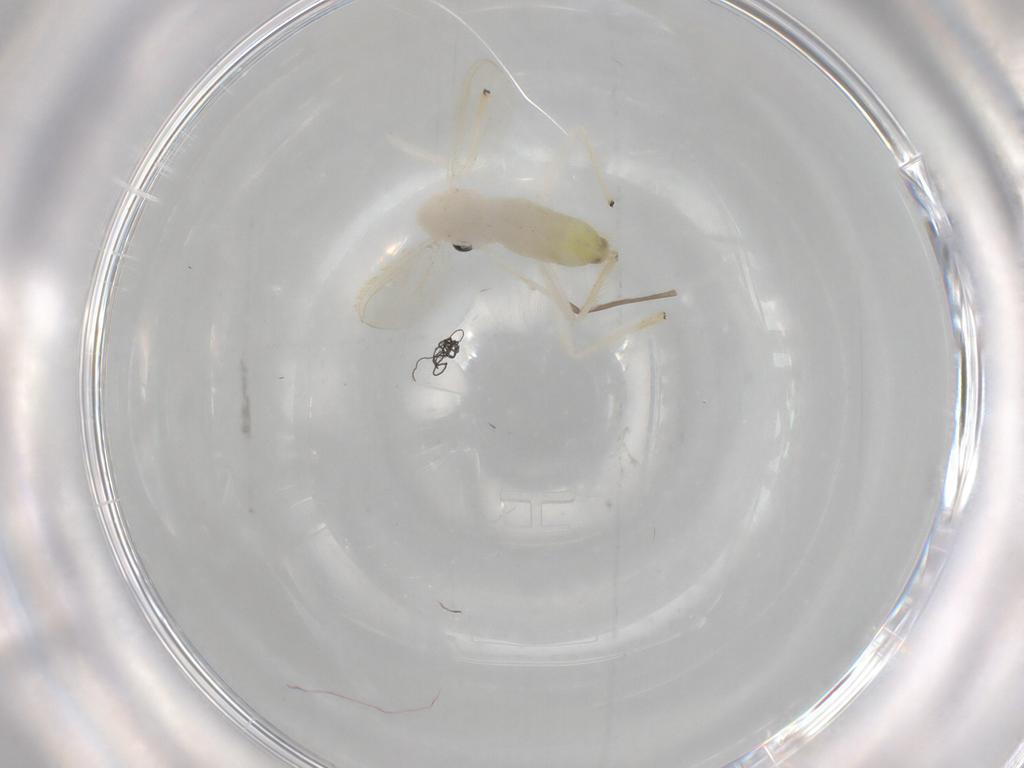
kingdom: Animalia
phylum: Arthropoda
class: Insecta
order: Diptera
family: Chironomidae
